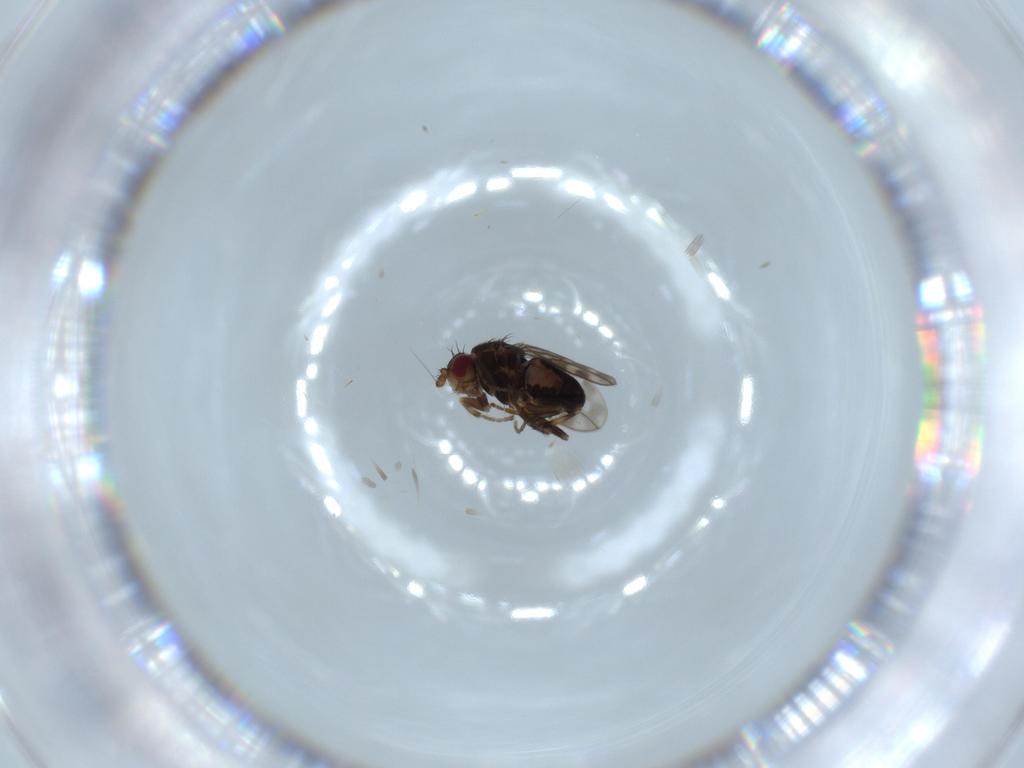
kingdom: Animalia
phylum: Arthropoda
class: Insecta
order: Diptera
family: Sphaeroceridae
